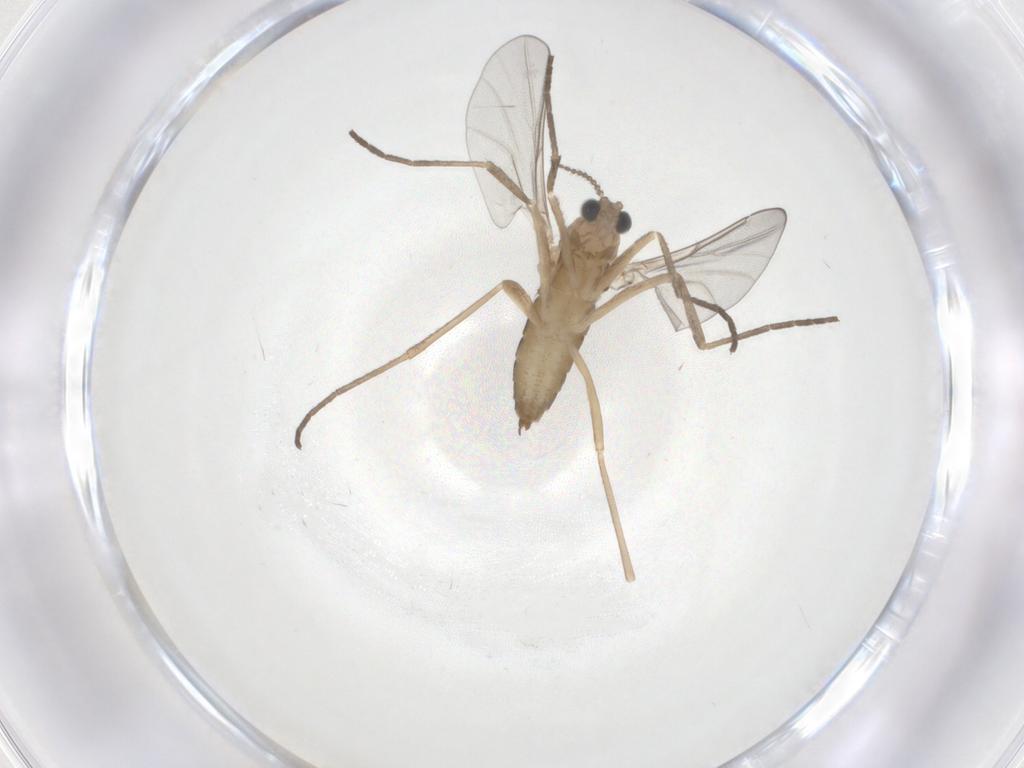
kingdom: Animalia
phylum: Arthropoda
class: Insecta
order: Diptera
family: Cecidomyiidae
